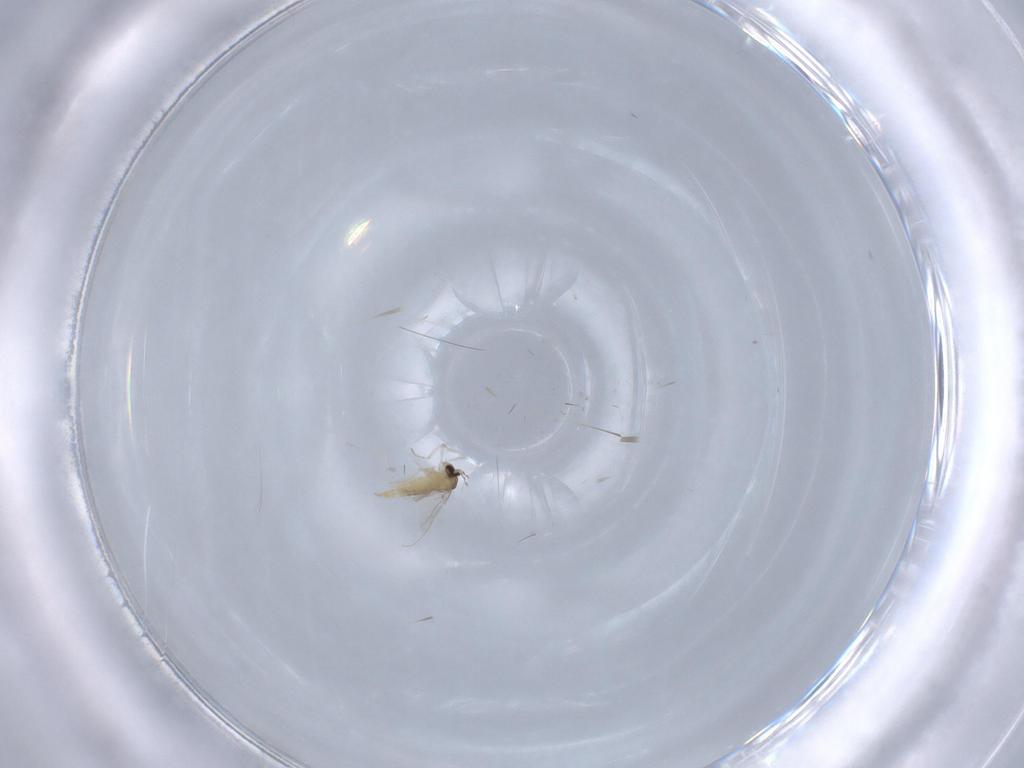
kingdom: Animalia
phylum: Arthropoda
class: Insecta
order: Diptera
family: Cecidomyiidae
